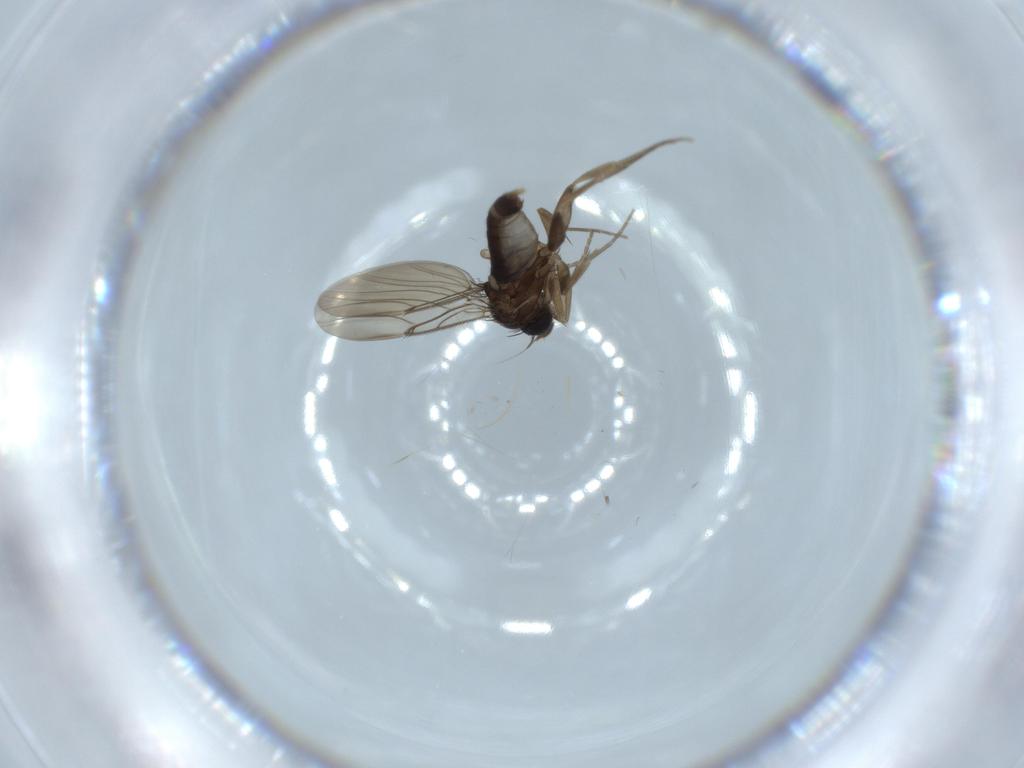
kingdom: Animalia
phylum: Arthropoda
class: Insecta
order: Diptera
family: Phoridae
